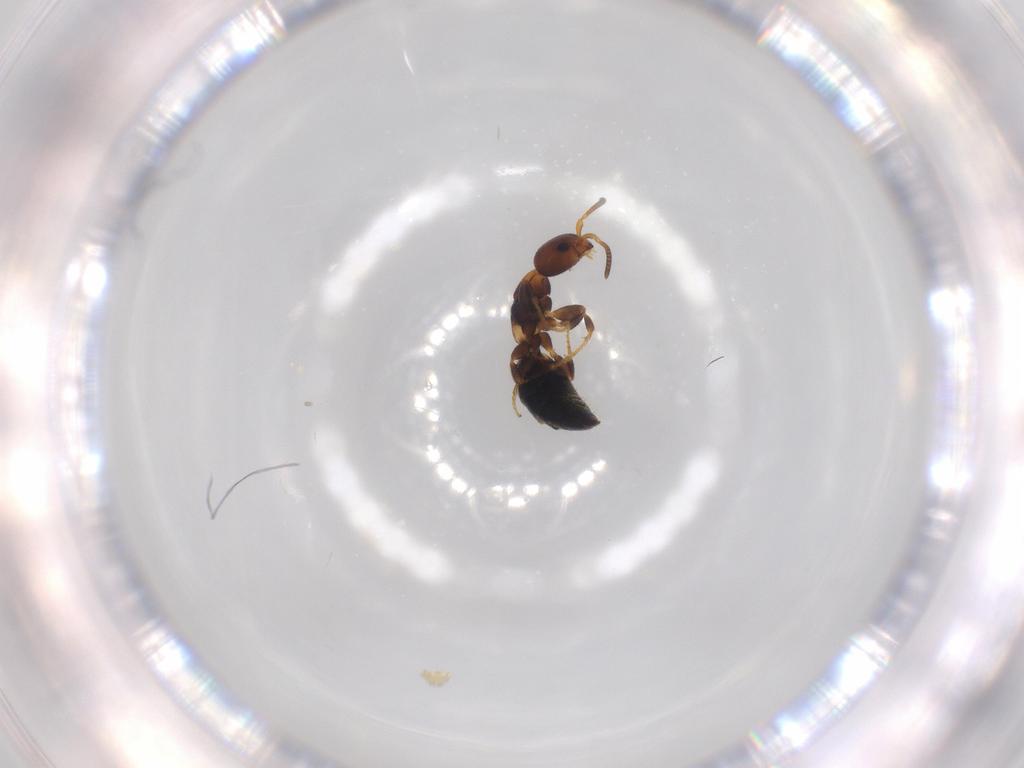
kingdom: Animalia
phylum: Arthropoda
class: Insecta
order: Hymenoptera
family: Bethylidae
